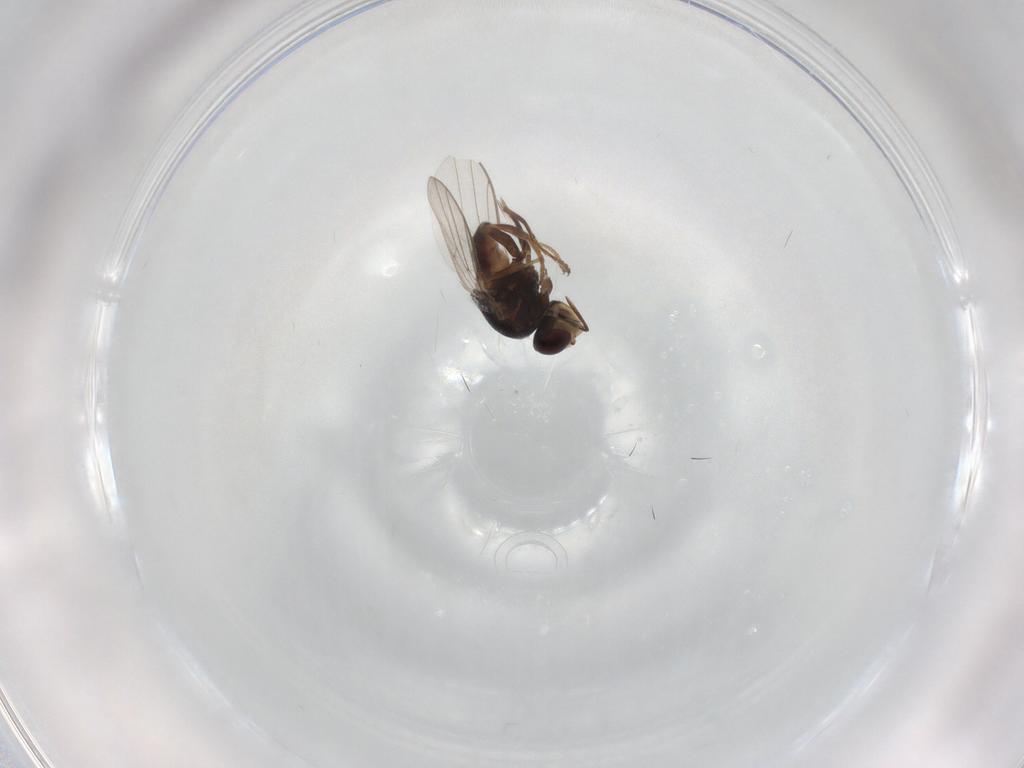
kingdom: Animalia
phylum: Arthropoda
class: Insecta
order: Diptera
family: Chloropidae
